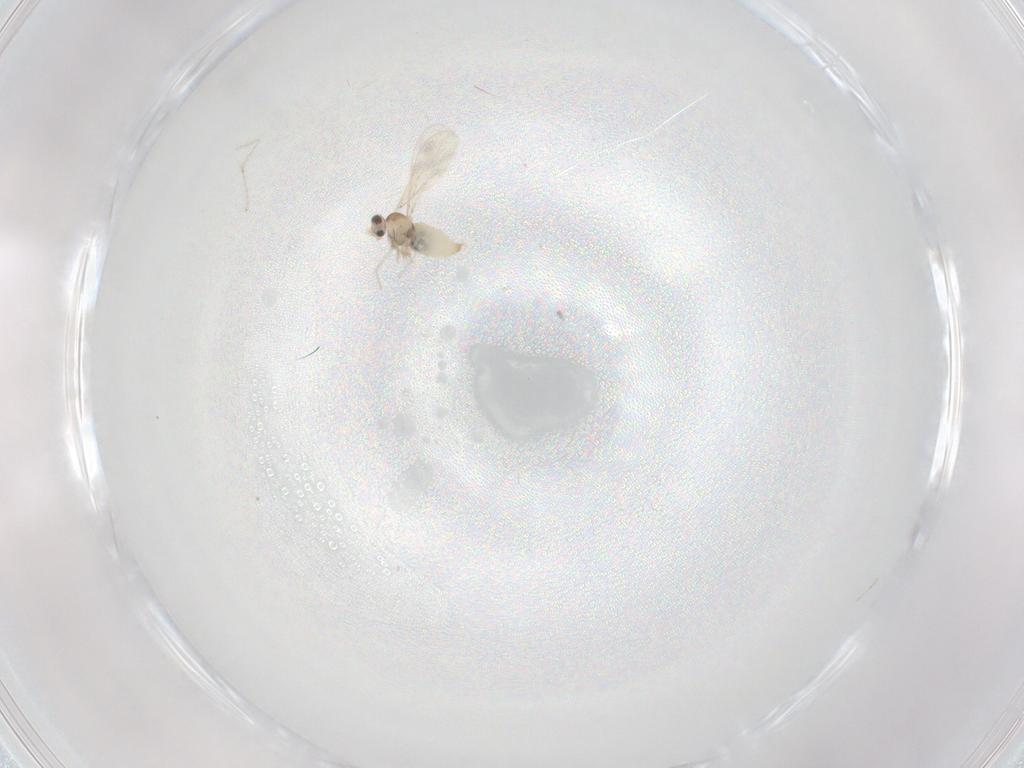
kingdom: Animalia
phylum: Arthropoda
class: Insecta
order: Diptera
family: Cecidomyiidae
